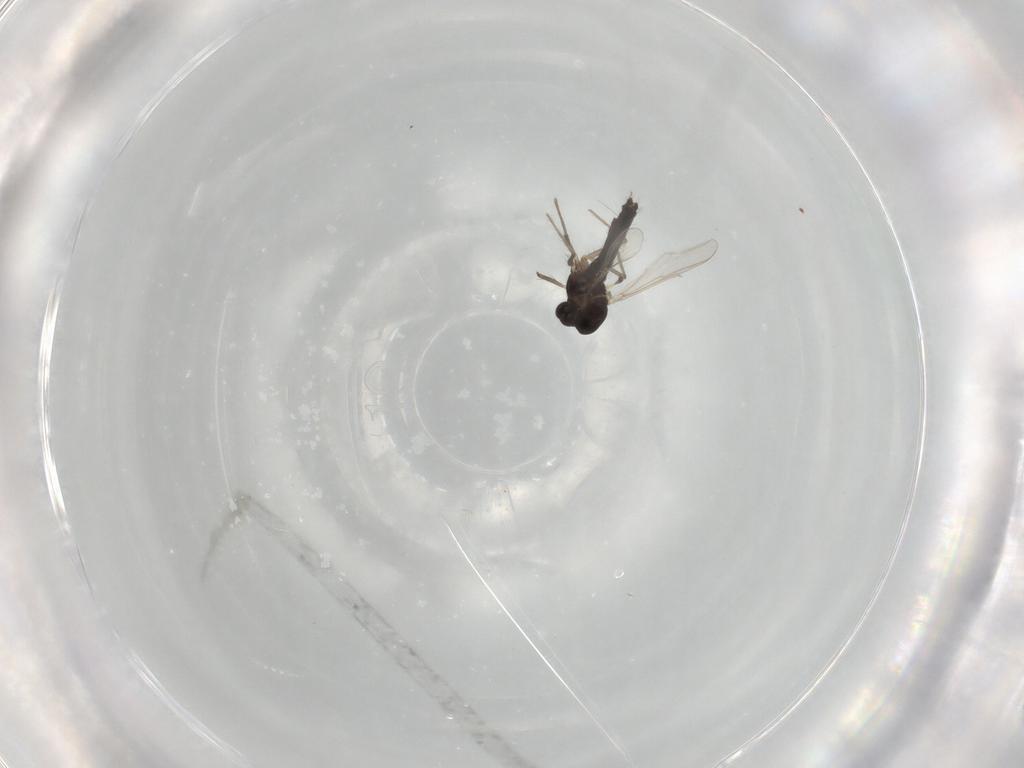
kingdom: Animalia
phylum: Arthropoda
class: Insecta
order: Diptera
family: Chironomidae
